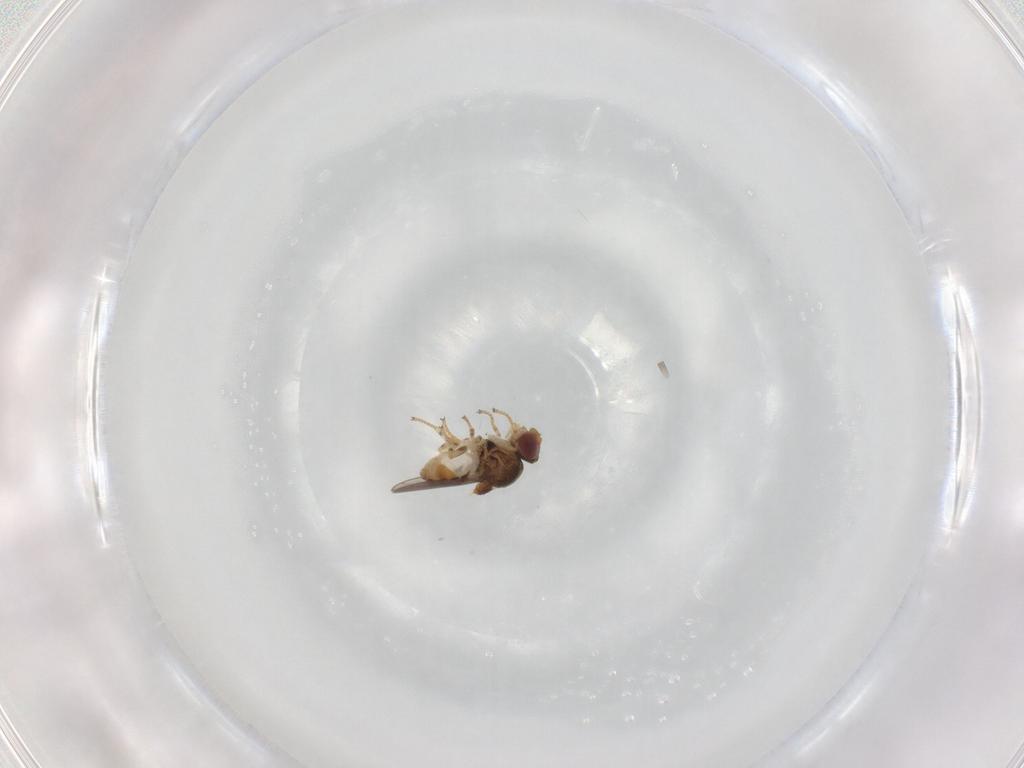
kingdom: Animalia
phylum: Arthropoda
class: Insecta
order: Diptera
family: Chloropidae
